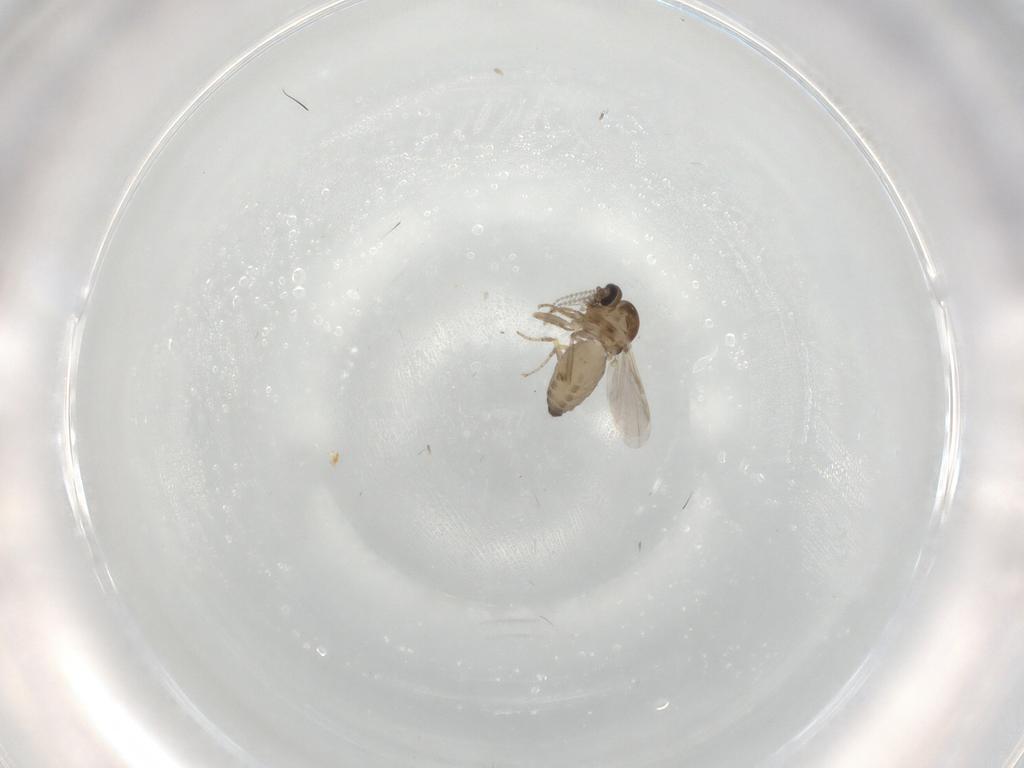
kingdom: Animalia
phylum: Arthropoda
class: Insecta
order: Diptera
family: Ceratopogonidae
